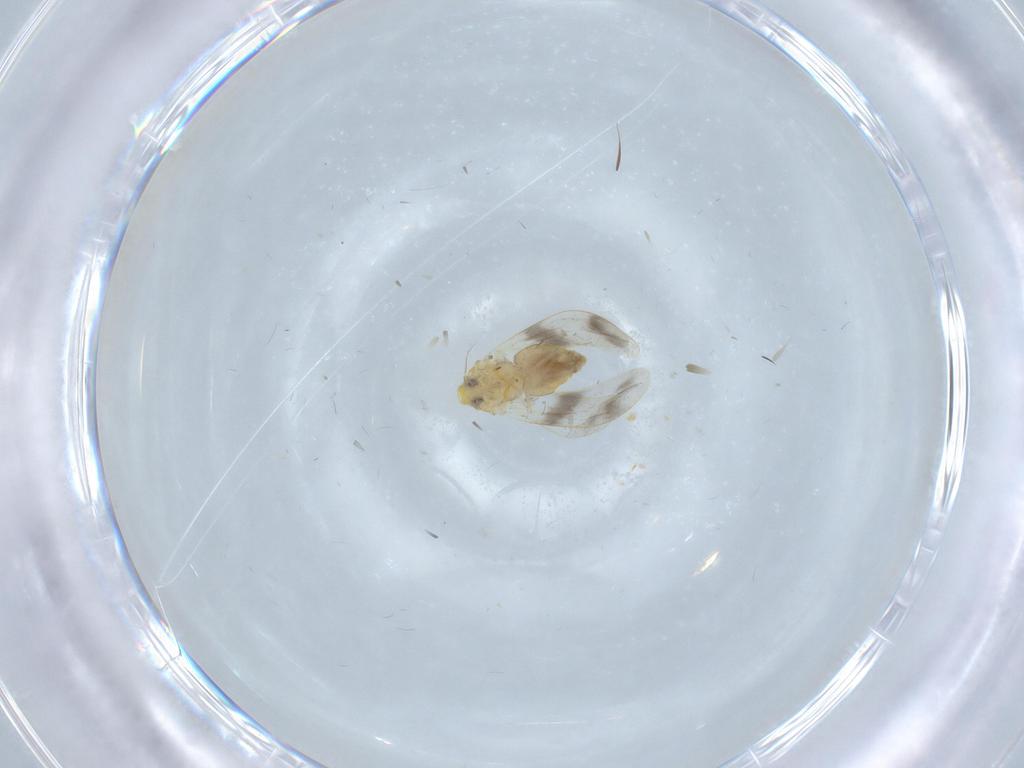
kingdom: Animalia
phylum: Arthropoda
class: Insecta
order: Hemiptera
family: Aleyrodidae
